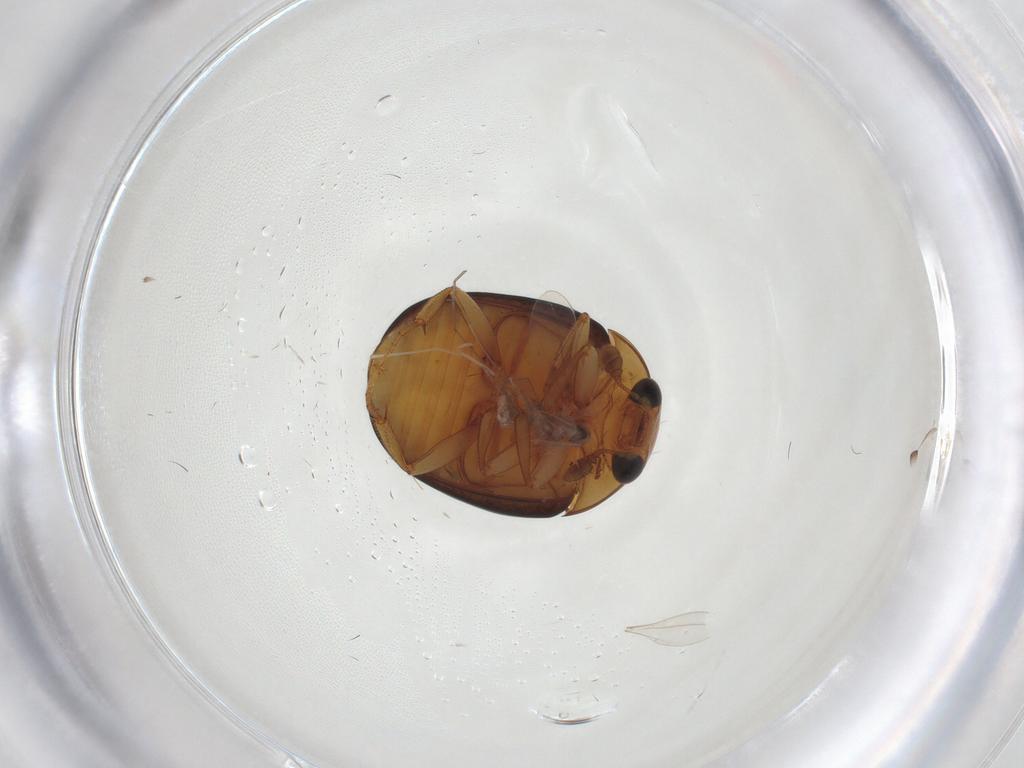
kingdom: Animalia
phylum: Arthropoda
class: Insecta
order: Coleoptera
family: Nitidulidae
